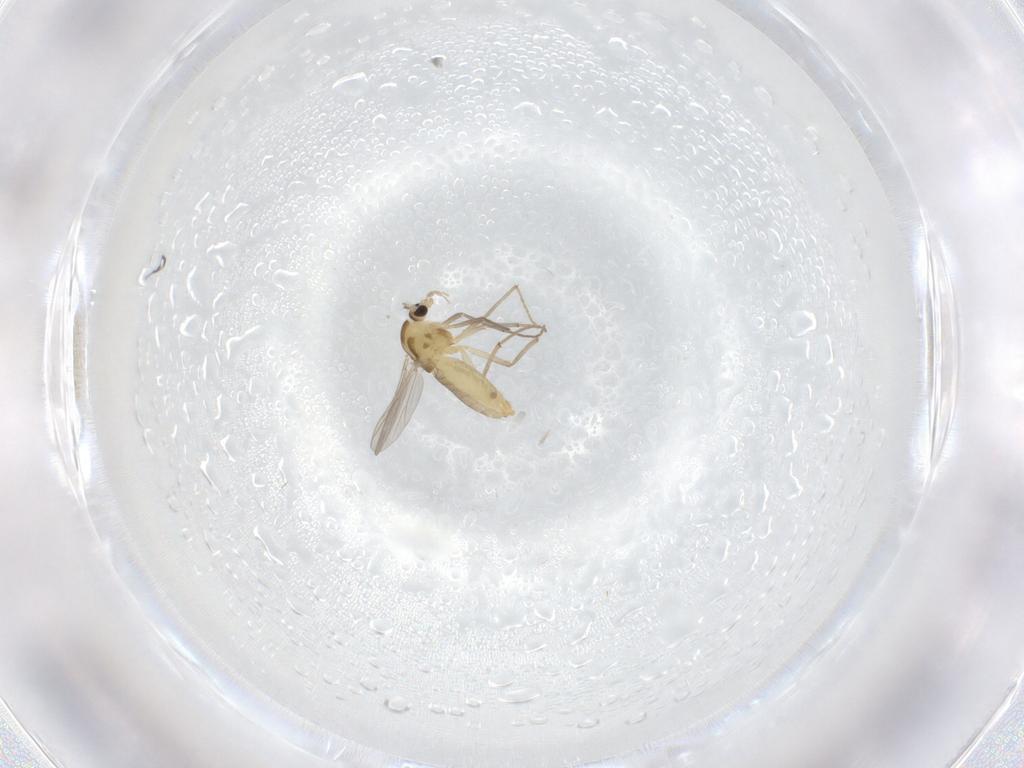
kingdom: Animalia
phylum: Arthropoda
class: Insecta
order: Diptera
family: Chironomidae
